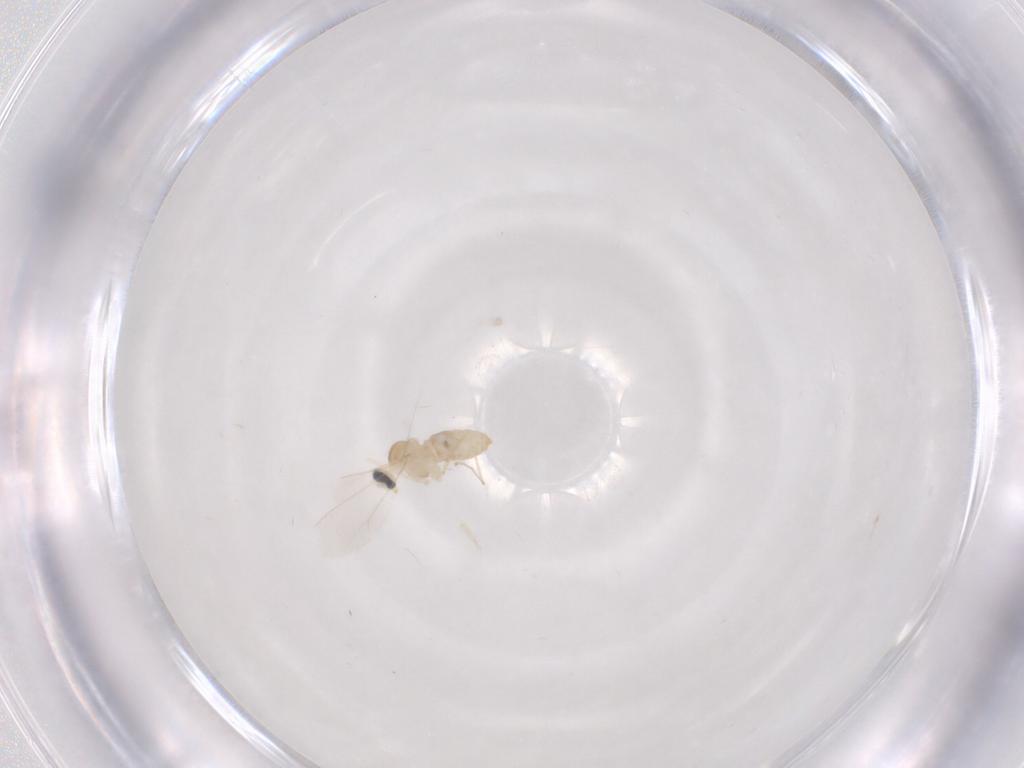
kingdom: Animalia
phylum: Arthropoda
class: Insecta
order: Diptera
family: Cecidomyiidae
